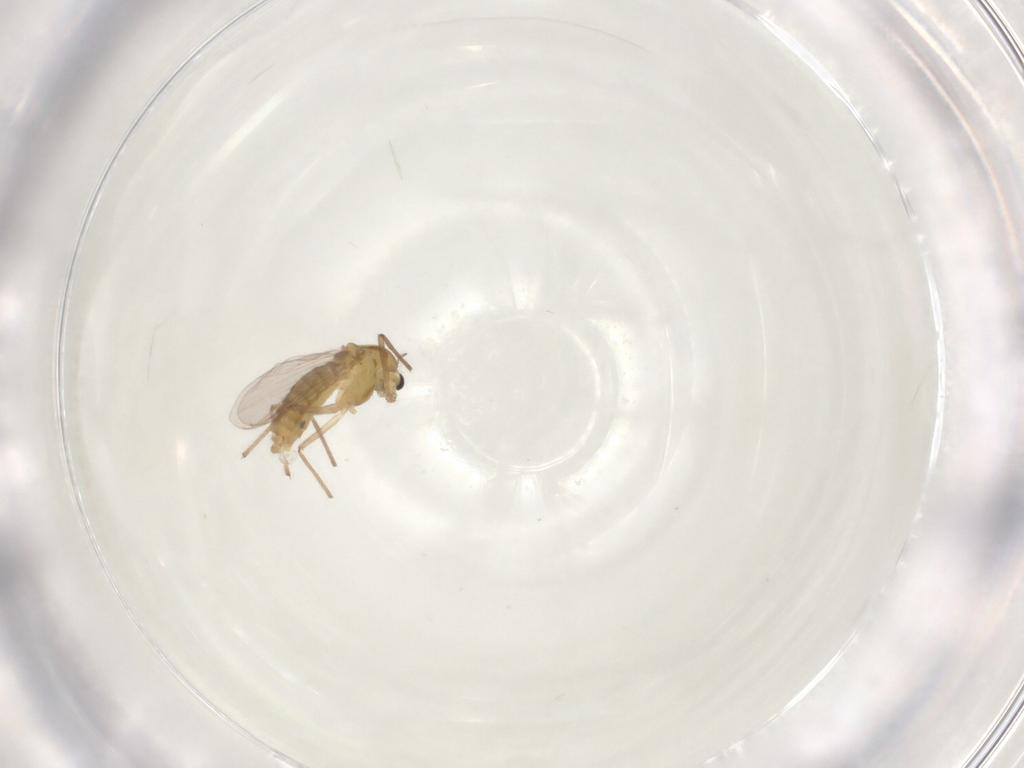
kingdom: Animalia
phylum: Arthropoda
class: Insecta
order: Diptera
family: Chironomidae
